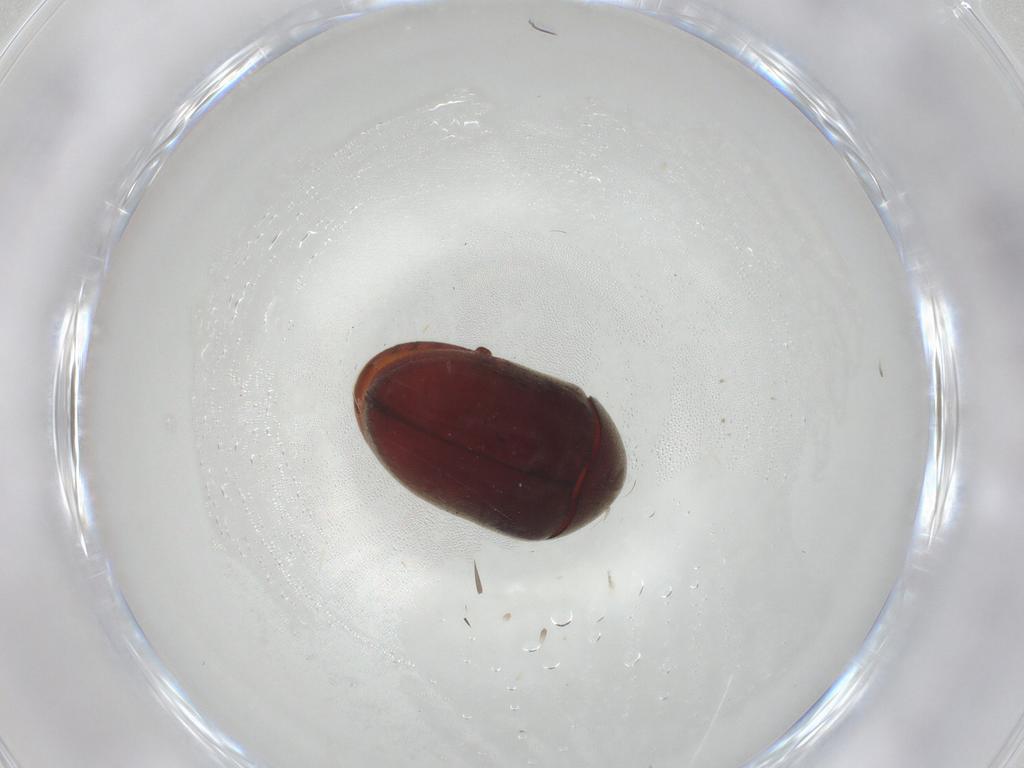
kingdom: Animalia
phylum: Arthropoda
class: Insecta
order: Coleoptera
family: Ptinidae
